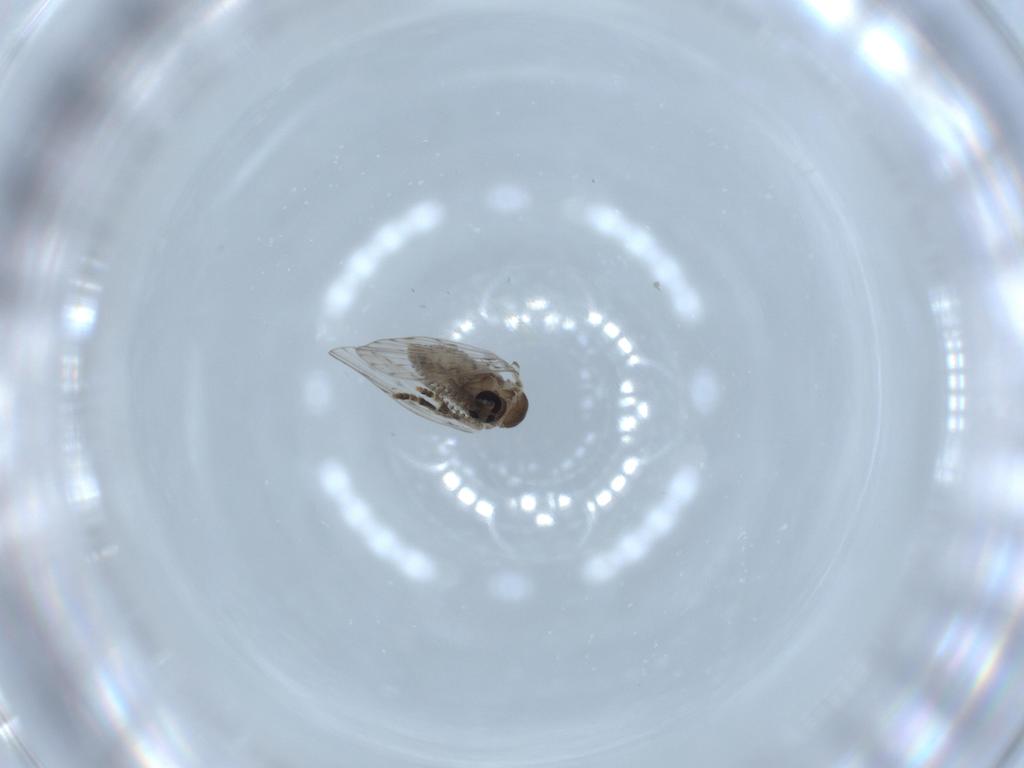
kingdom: Animalia
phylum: Arthropoda
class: Insecta
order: Diptera
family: Psychodidae
